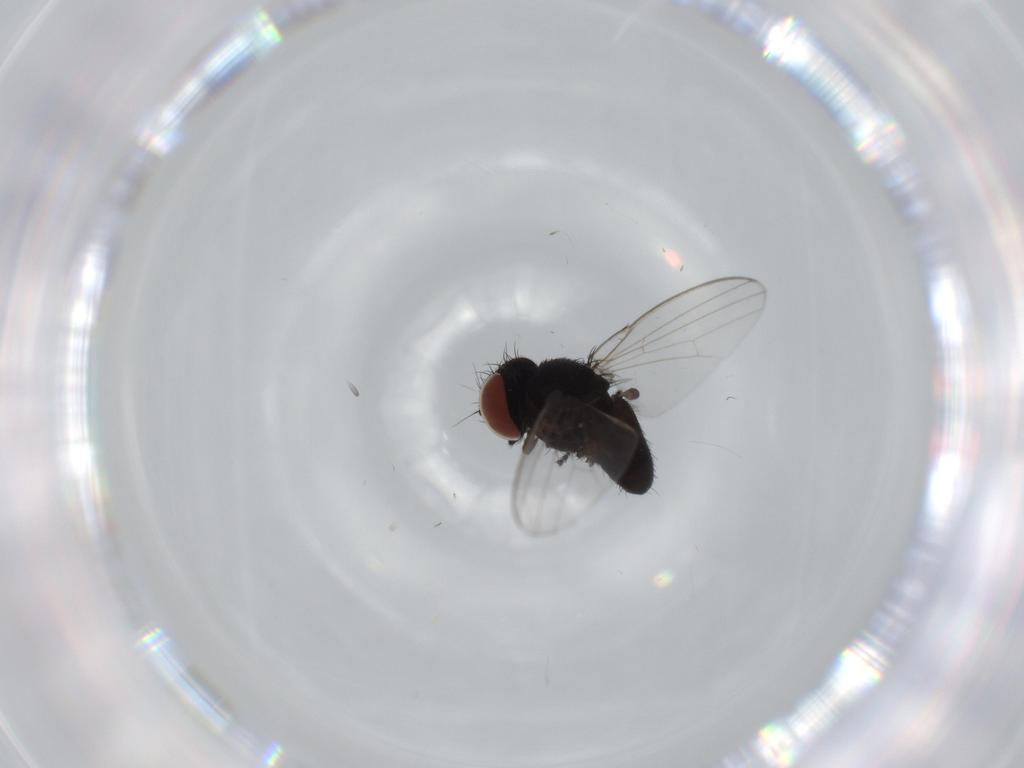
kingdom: Animalia
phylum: Arthropoda
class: Insecta
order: Diptera
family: Milichiidae
